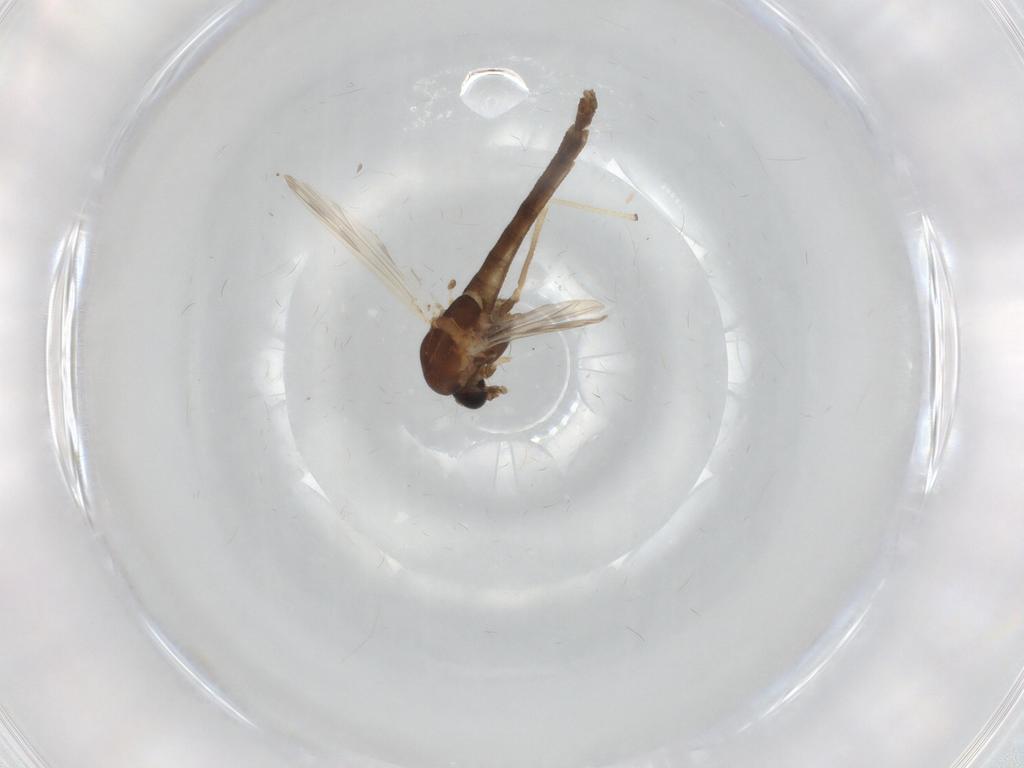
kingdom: Animalia
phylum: Arthropoda
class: Insecta
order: Diptera
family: Chironomidae
